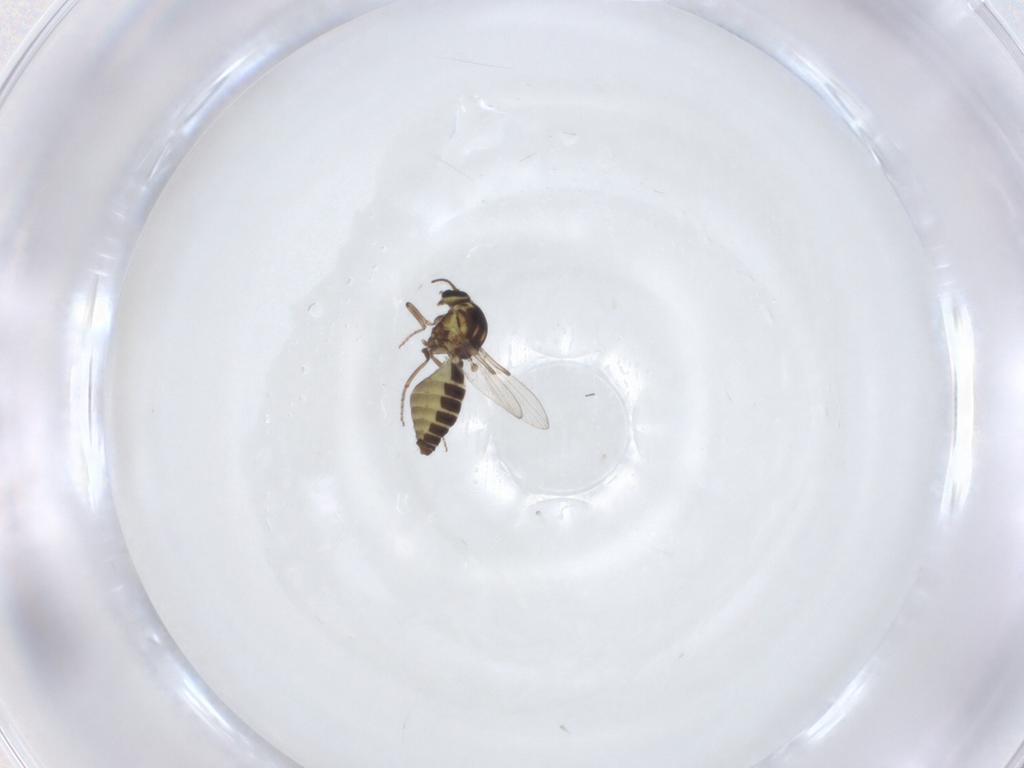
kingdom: Animalia
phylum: Arthropoda
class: Insecta
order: Diptera
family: Ceratopogonidae
